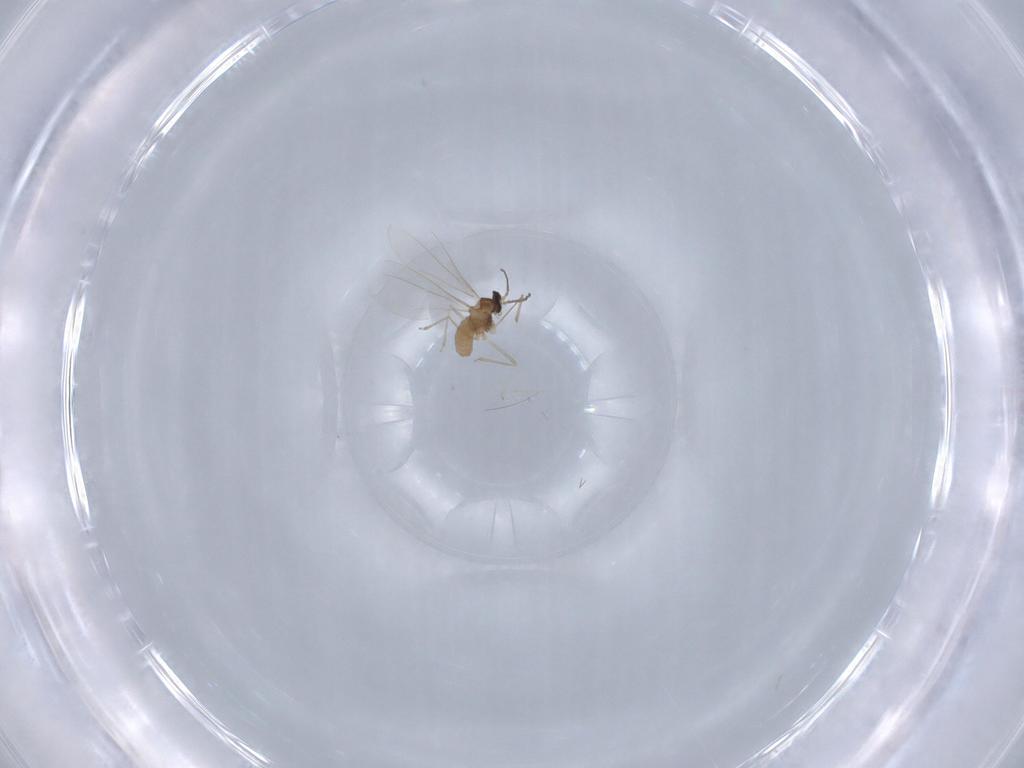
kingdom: Animalia
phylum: Arthropoda
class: Insecta
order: Diptera
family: Cecidomyiidae
